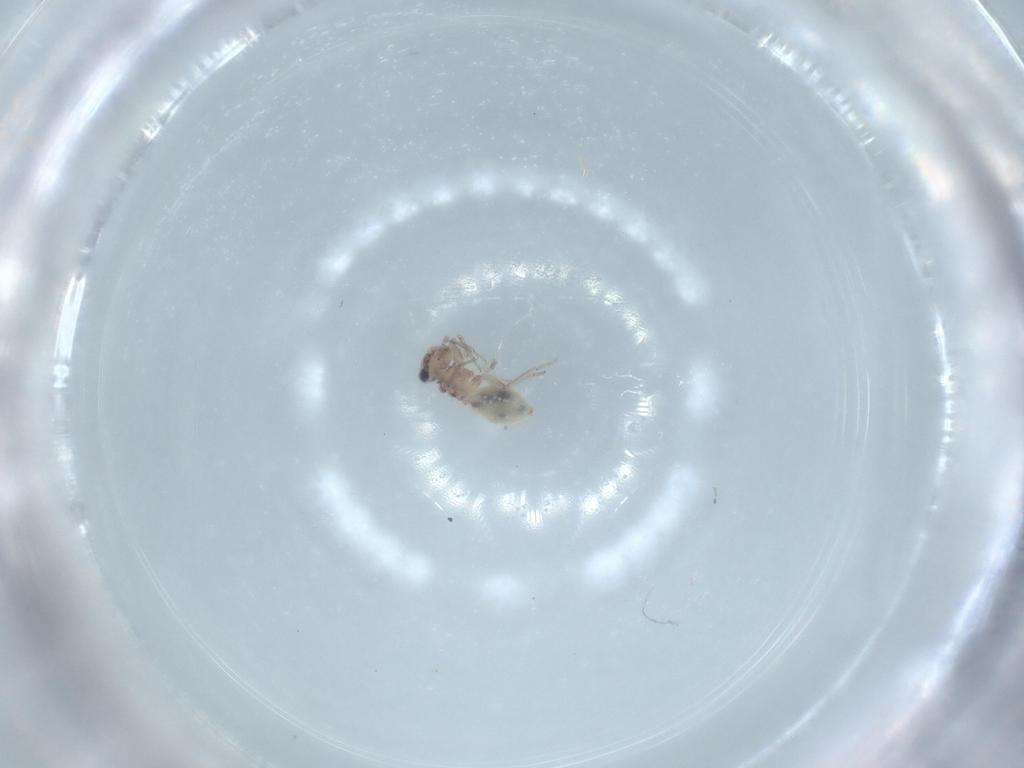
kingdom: Animalia
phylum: Arthropoda
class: Insecta
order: Psocodea
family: Lepidopsocidae
